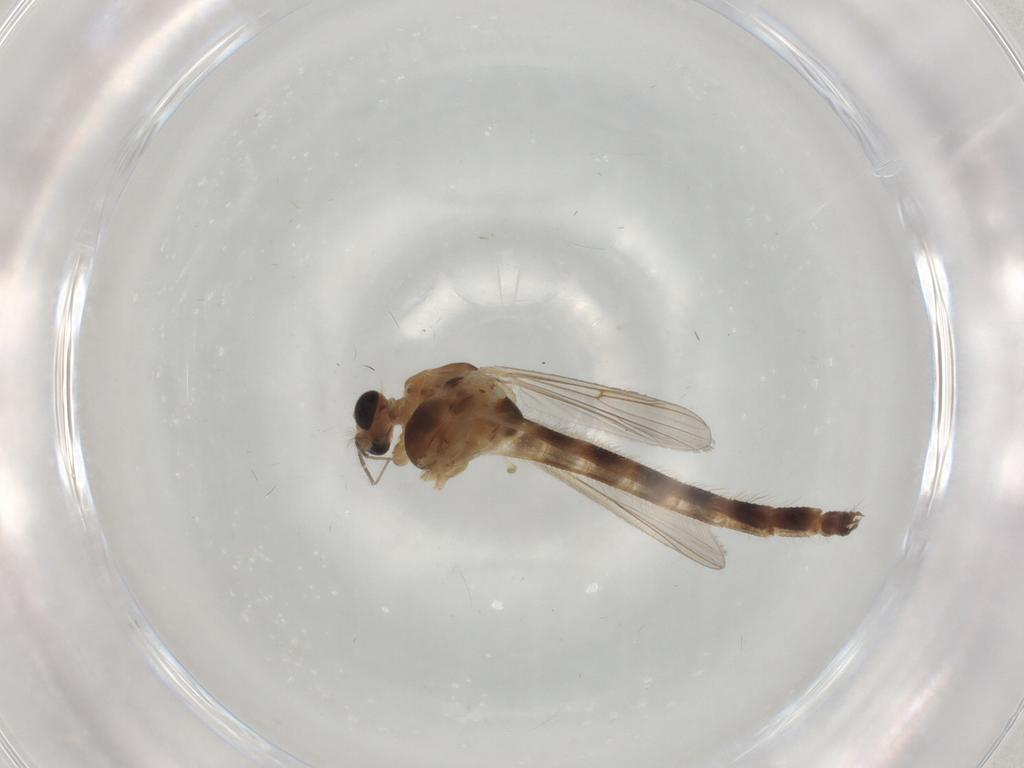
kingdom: Animalia
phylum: Arthropoda
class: Insecta
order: Diptera
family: Chironomidae
